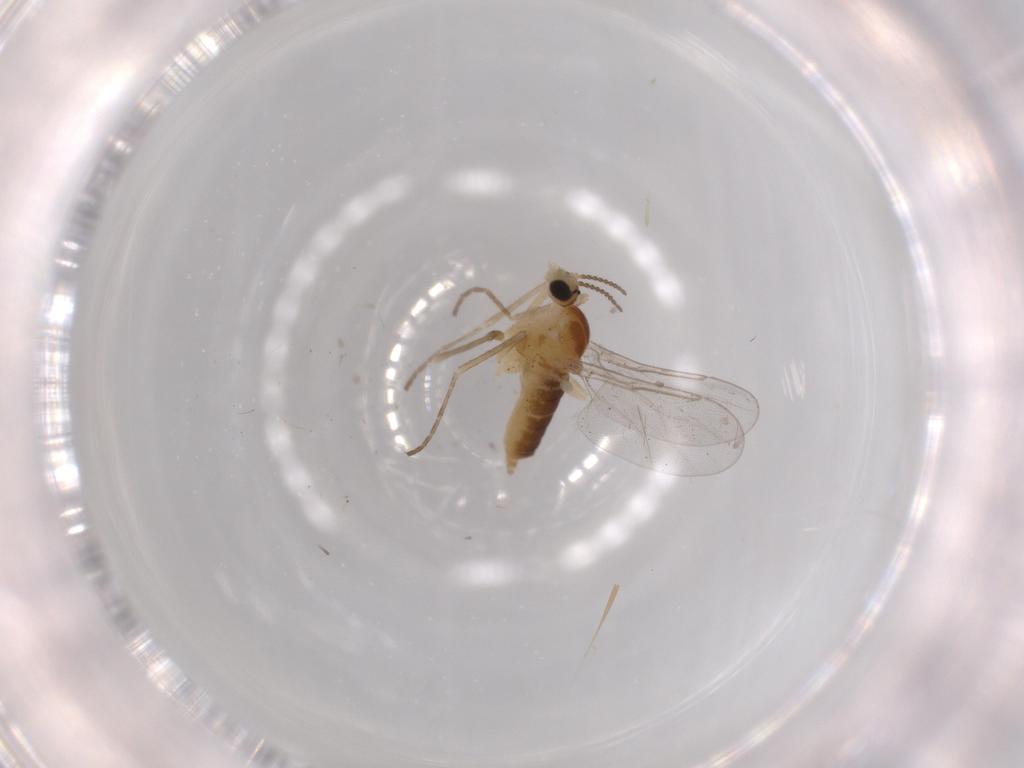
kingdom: Animalia
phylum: Arthropoda
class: Insecta
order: Diptera
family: Cecidomyiidae
